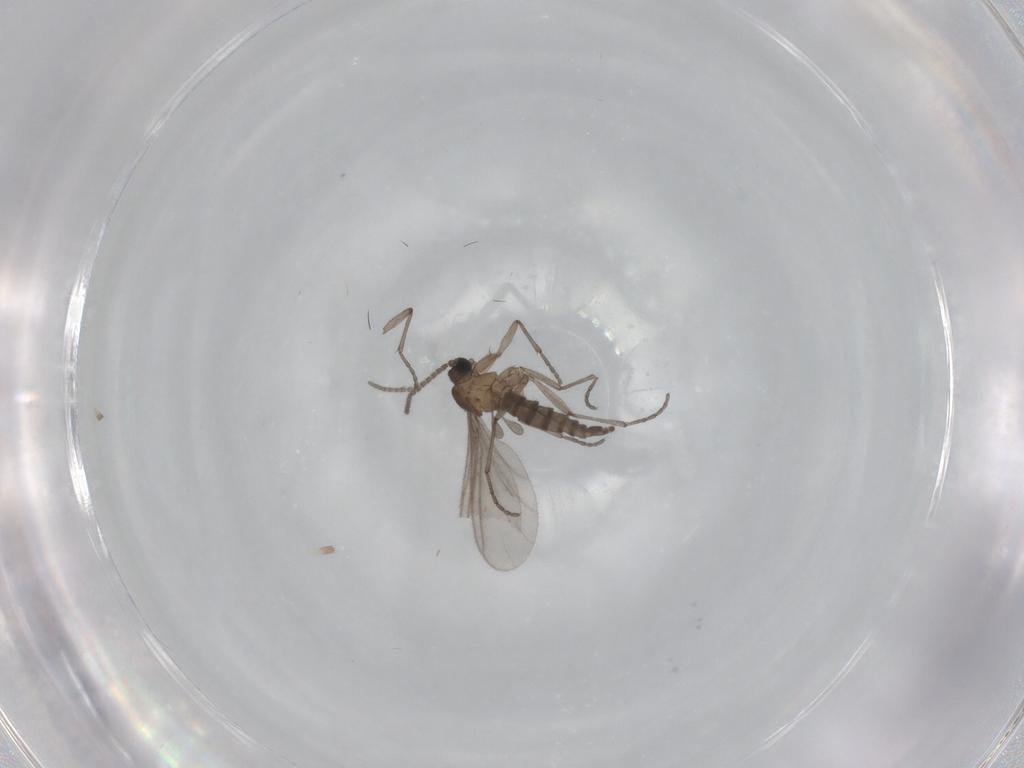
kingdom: Animalia
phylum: Arthropoda
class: Insecta
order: Diptera
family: Sciaridae
